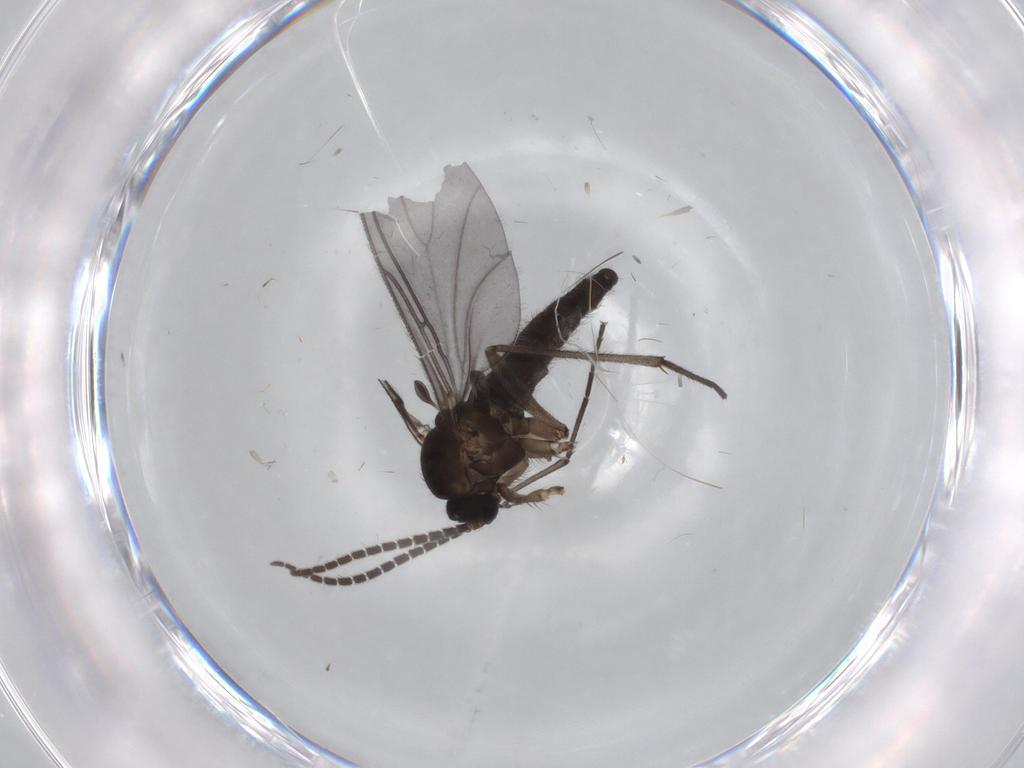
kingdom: Animalia
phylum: Arthropoda
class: Insecta
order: Diptera
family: Sciaridae
